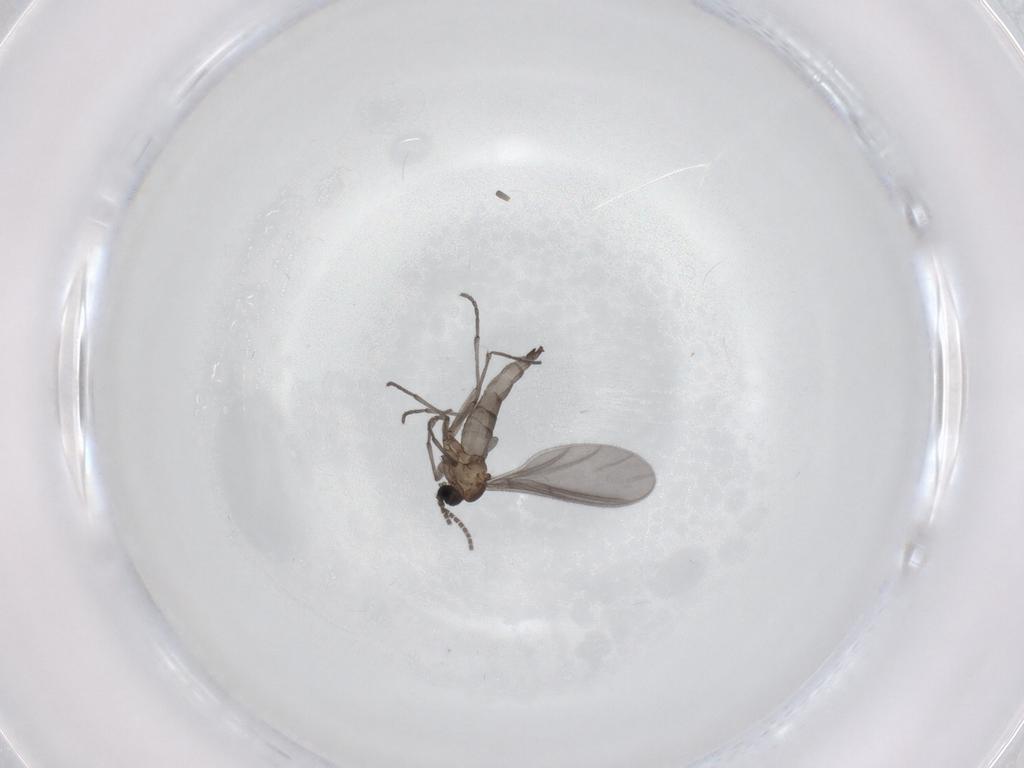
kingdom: Animalia
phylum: Arthropoda
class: Insecta
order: Diptera
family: Sciaridae
